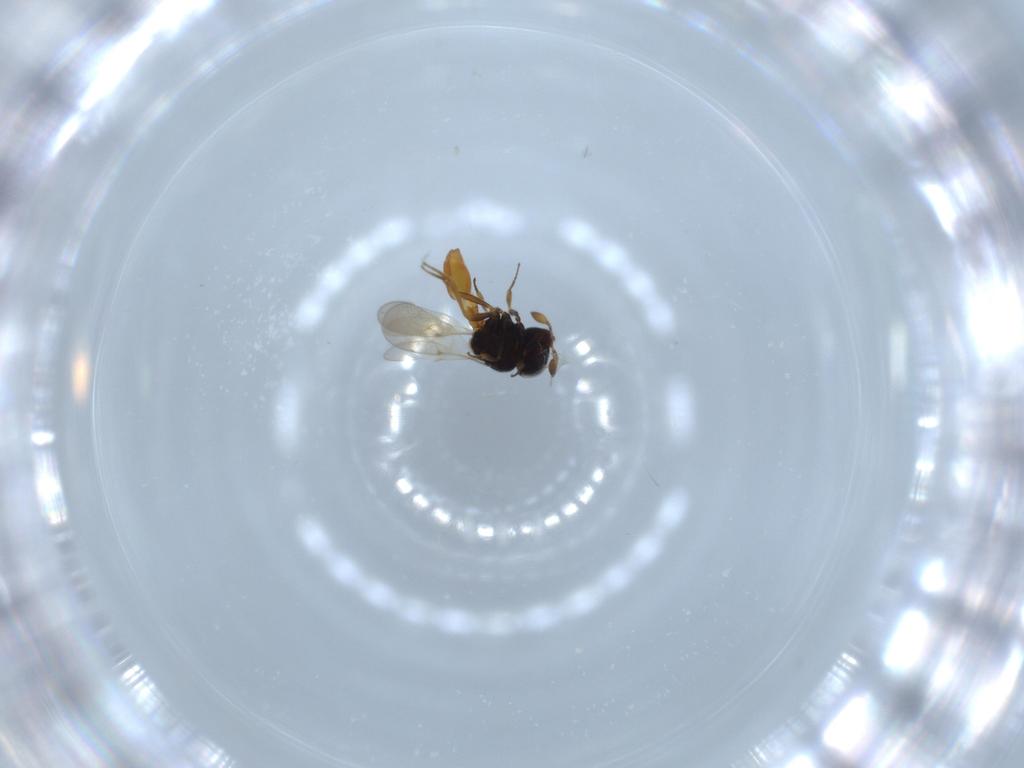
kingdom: Animalia
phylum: Arthropoda
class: Insecta
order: Hymenoptera
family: Scelionidae
